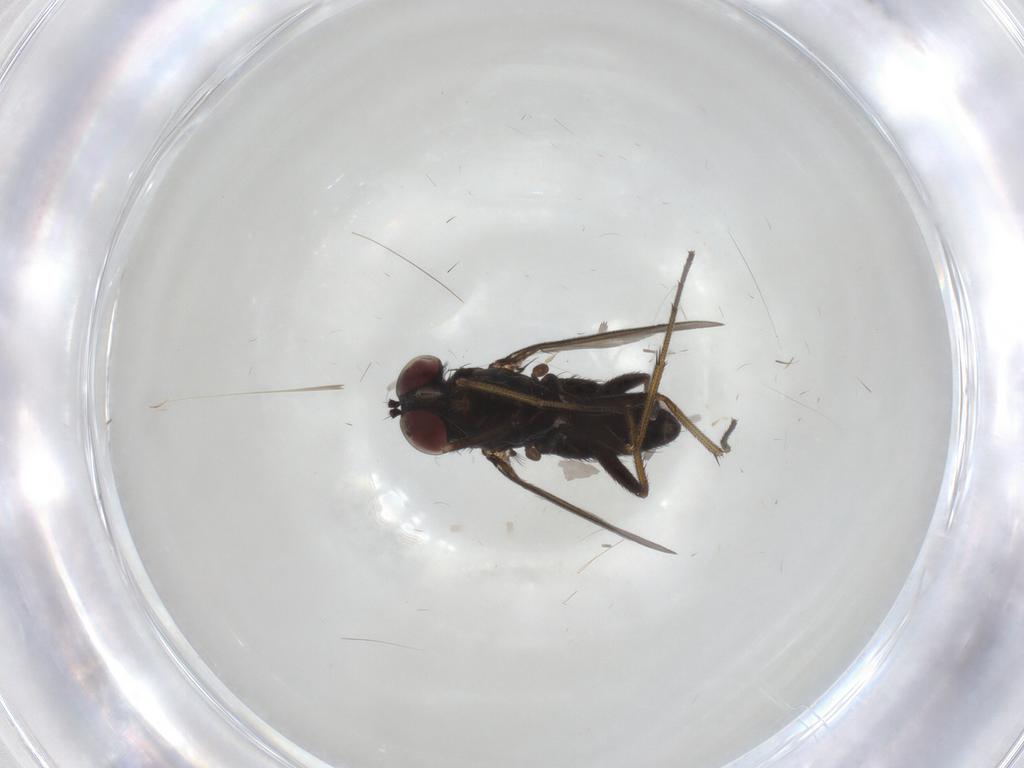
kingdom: Animalia
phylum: Arthropoda
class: Insecta
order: Diptera
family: Dolichopodidae
